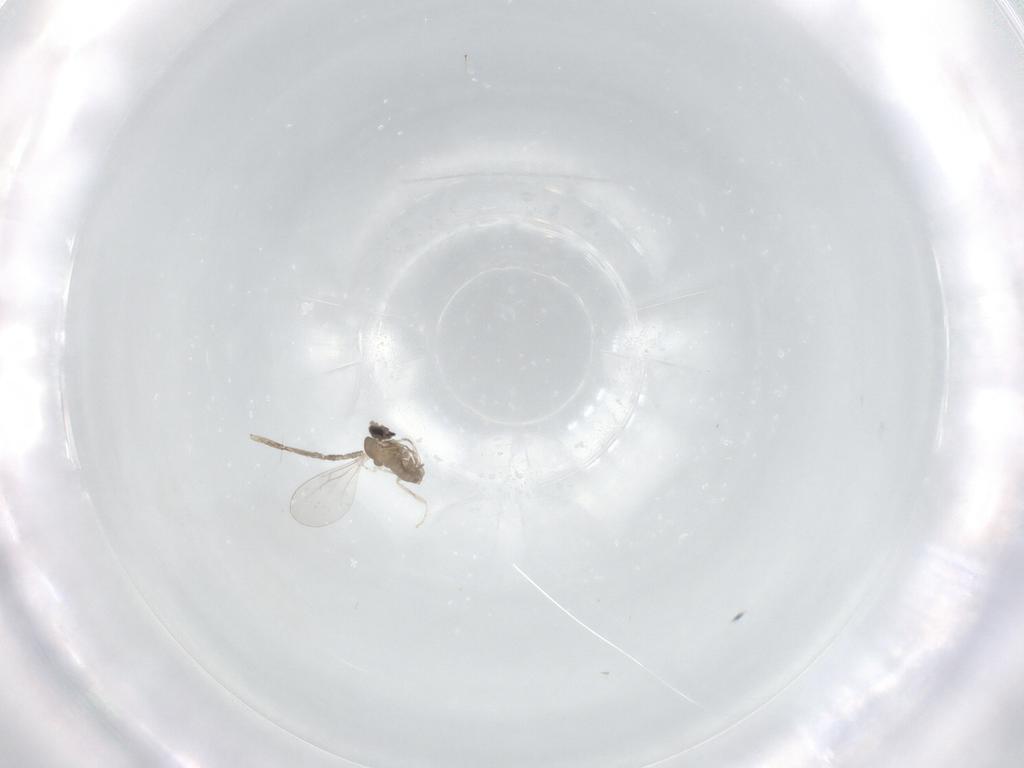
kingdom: Animalia
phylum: Arthropoda
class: Insecta
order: Diptera
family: Cecidomyiidae
